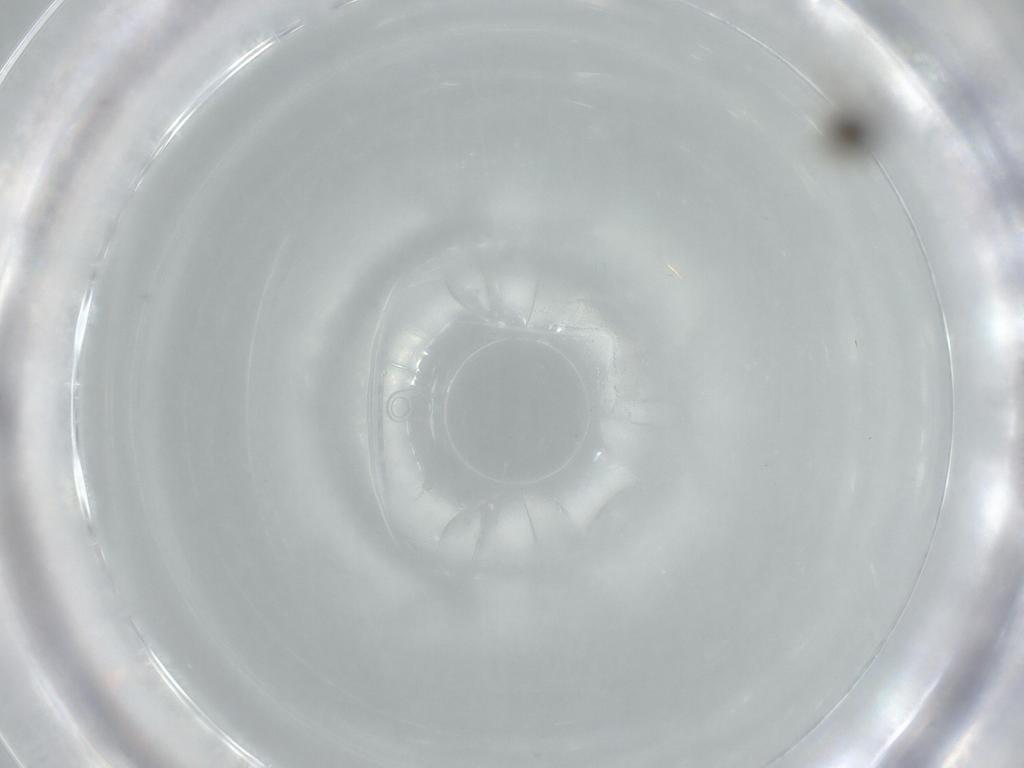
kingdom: Animalia
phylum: Arthropoda
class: Insecta
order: Diptera
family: Cecidomyiidae
